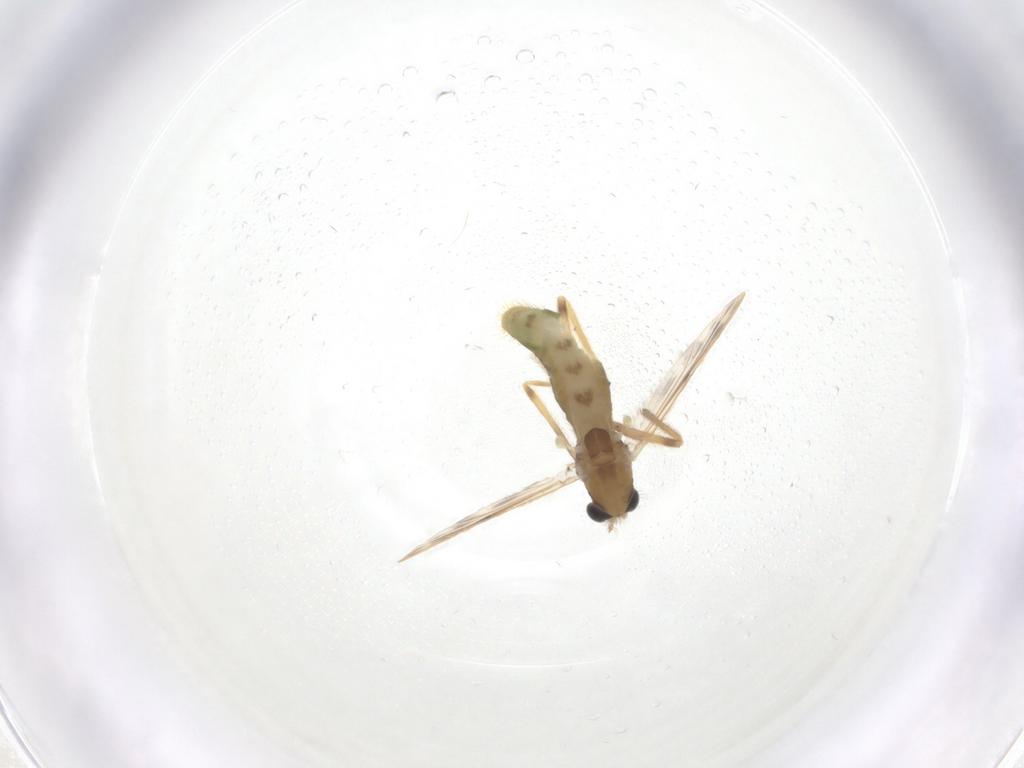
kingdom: Animalia
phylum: Arthropoda
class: Insecta
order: Diptera
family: Chironomidae
